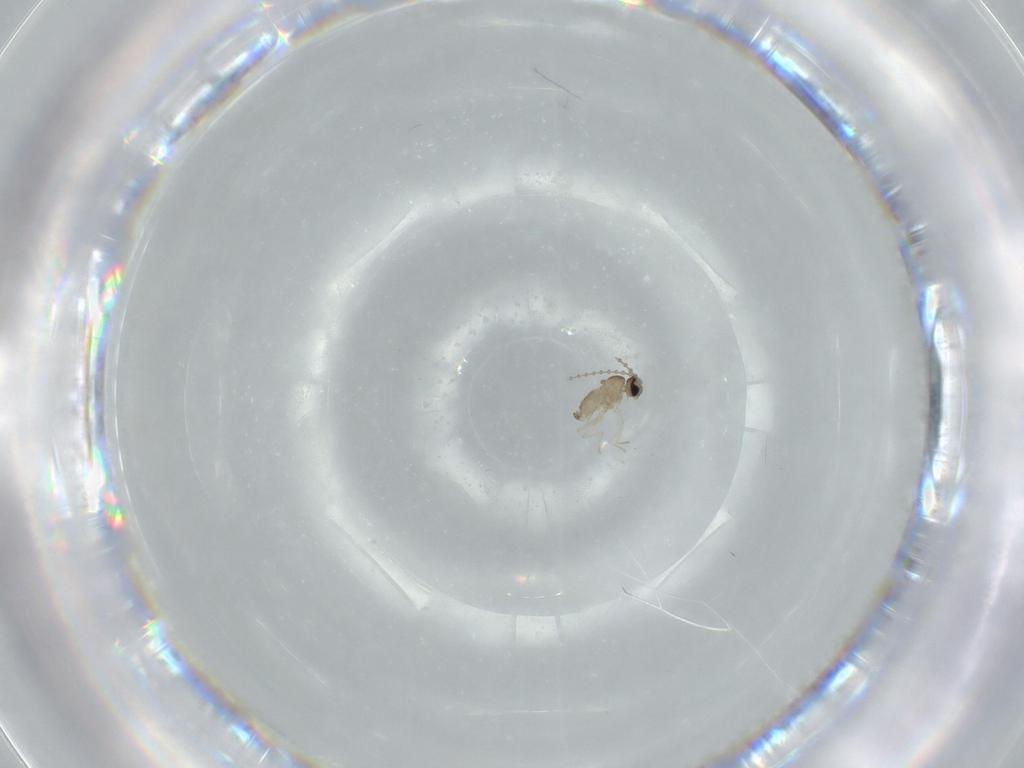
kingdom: Animalia
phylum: Arthropoda
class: Insecta
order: Diptera
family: Cecidomyiidae
